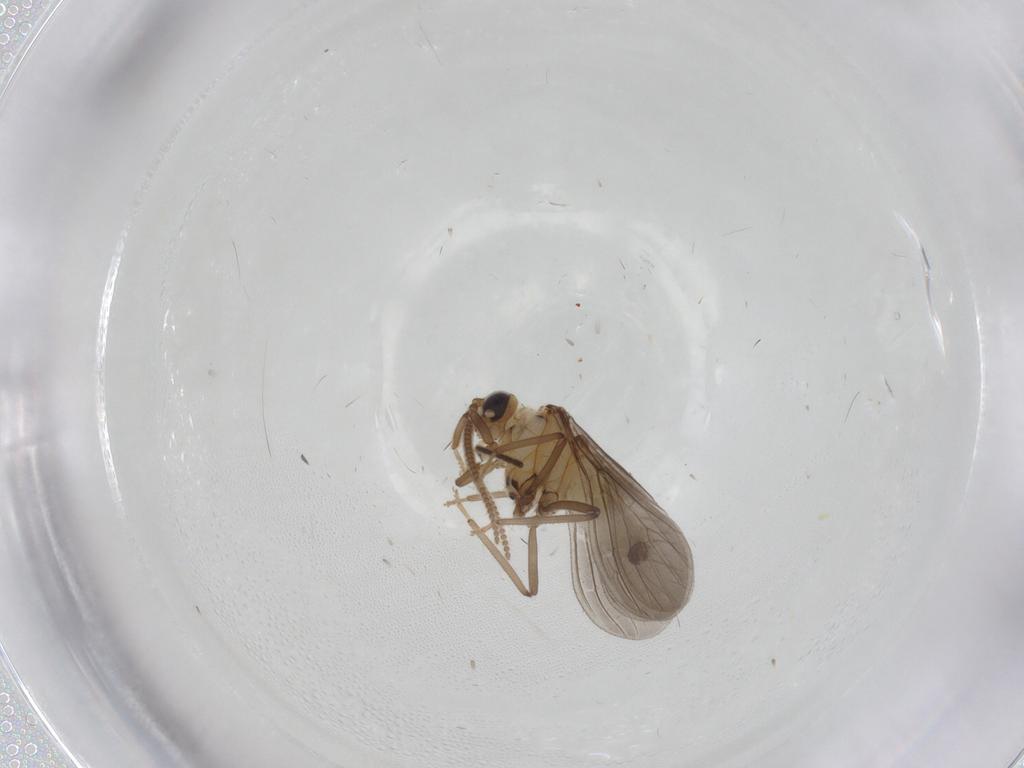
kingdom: Animalia
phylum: Arthropoda
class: Insecta
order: Neuroptera
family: Coniopterygidae
